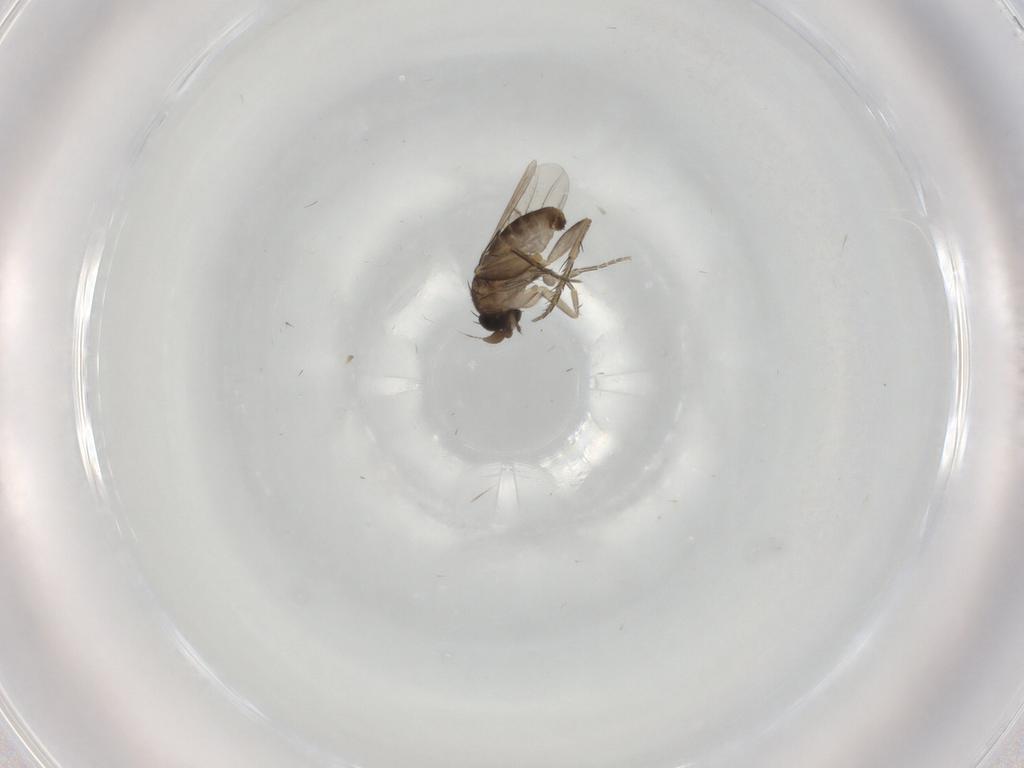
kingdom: Animalia
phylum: Arthropoda
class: Insecta
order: Diptera
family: Phoridae
